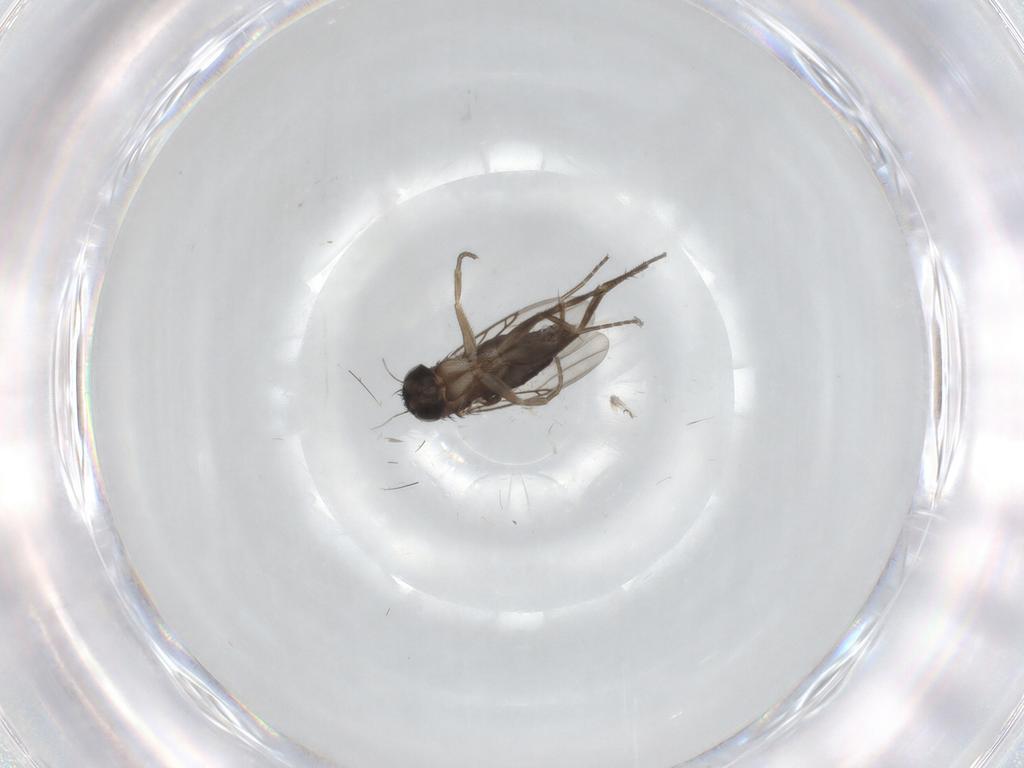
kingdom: Animalia
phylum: Arthropoda
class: Insecta
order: Diptera
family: Phoridae
